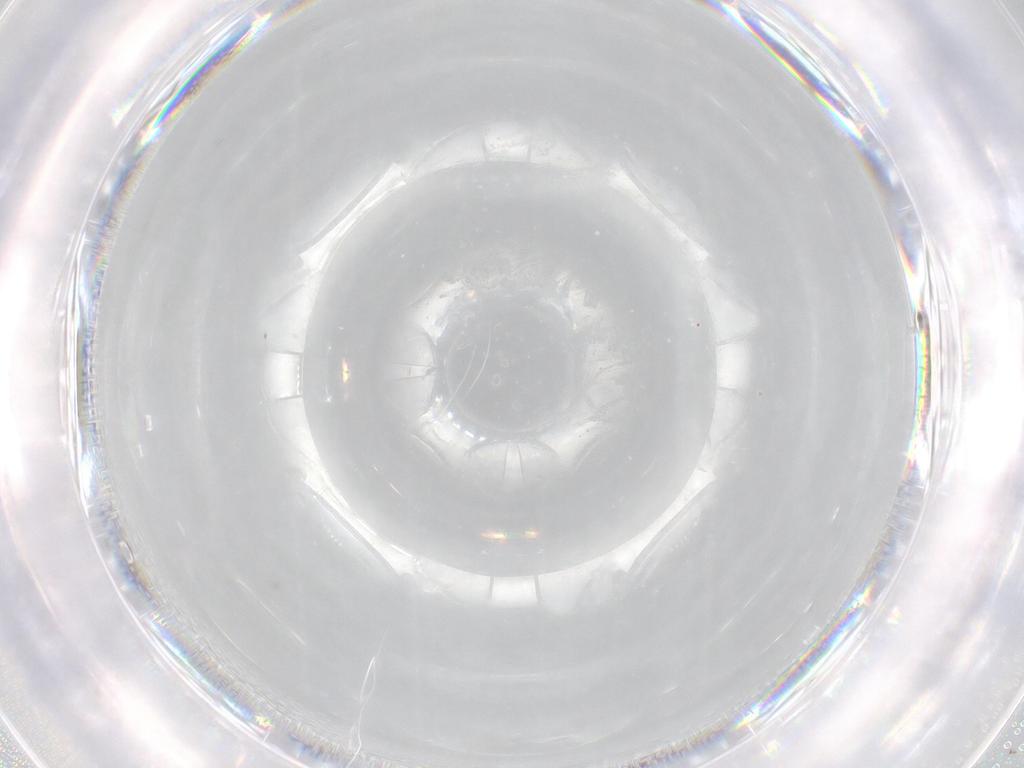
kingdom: Animalia
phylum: Arthropoda
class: Insecta
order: Diptera
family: Phoridae
